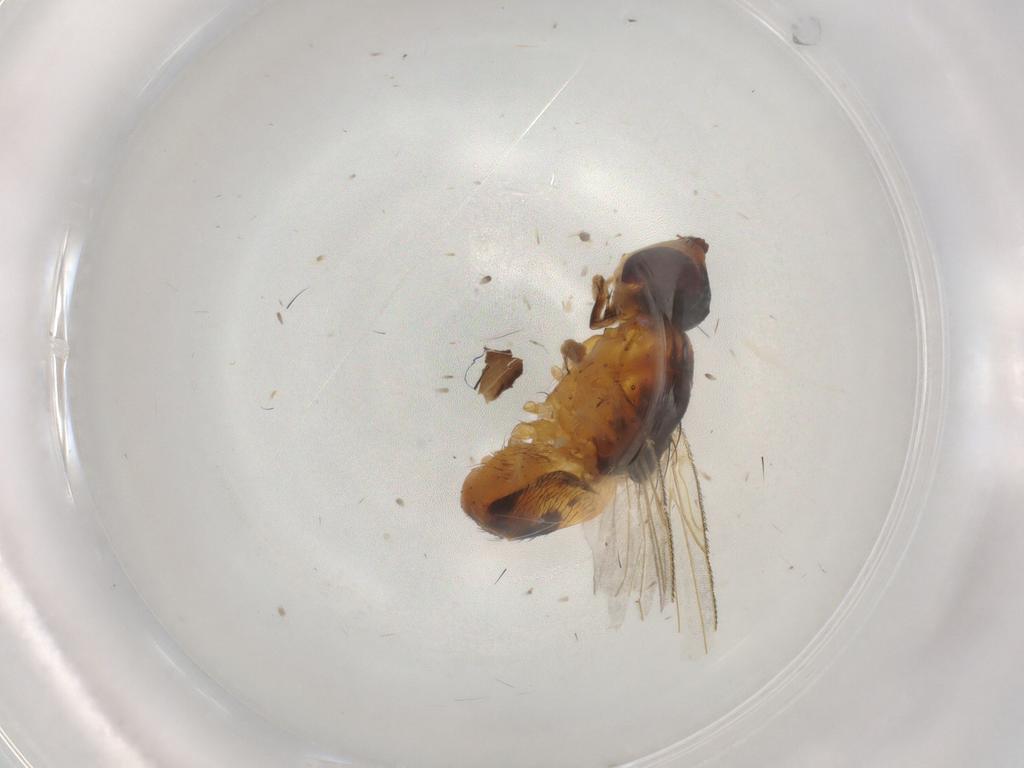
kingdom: Animalia
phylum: Arthropoda
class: Insecta
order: Diptera
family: Muscidae
